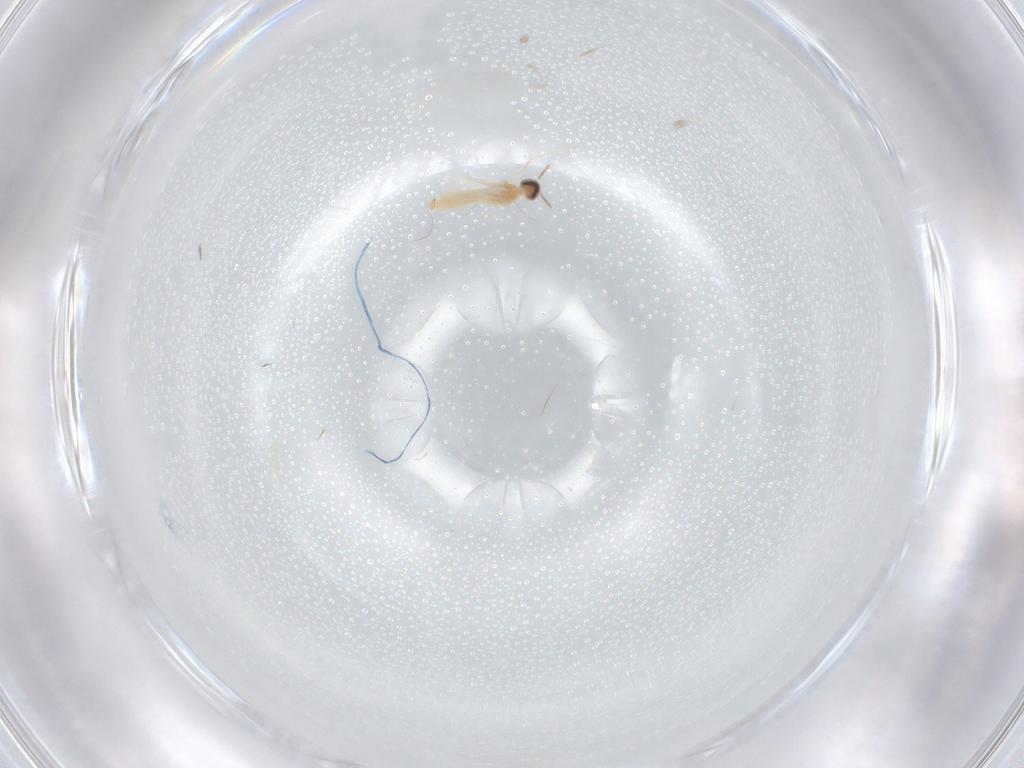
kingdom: Animalia
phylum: Arthropoda
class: Insecta
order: Diptera
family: Cecidomyiidae
